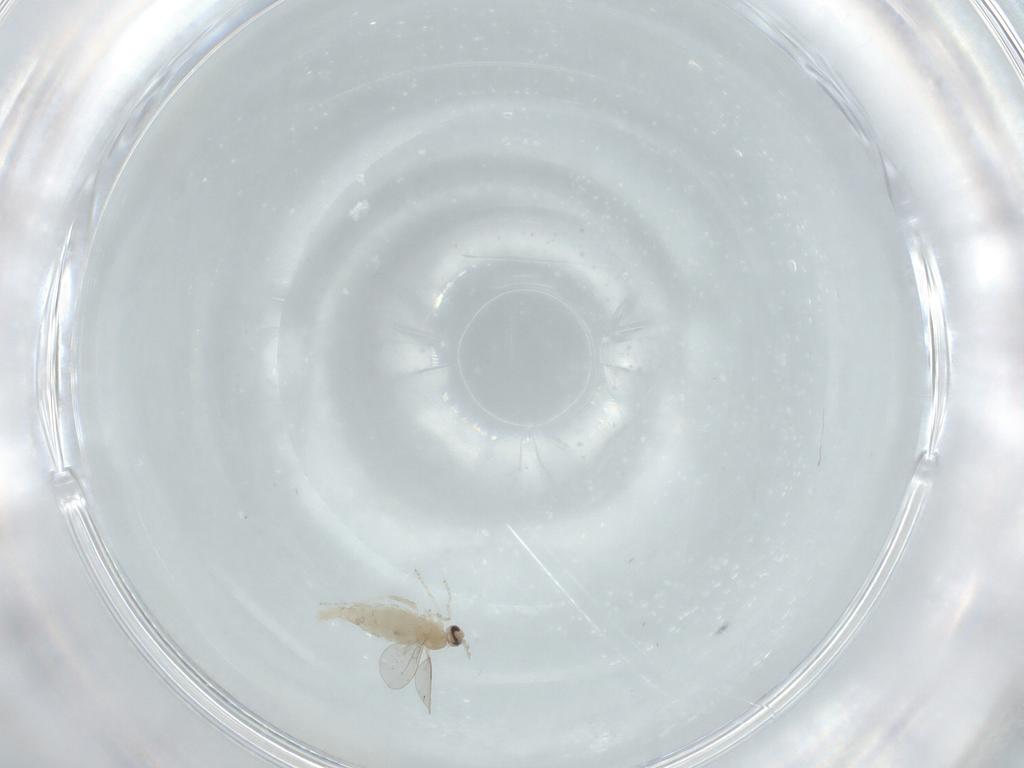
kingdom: Animalia
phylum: Arthropoda
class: Insecta
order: Diptera
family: Cecidomyiidae
